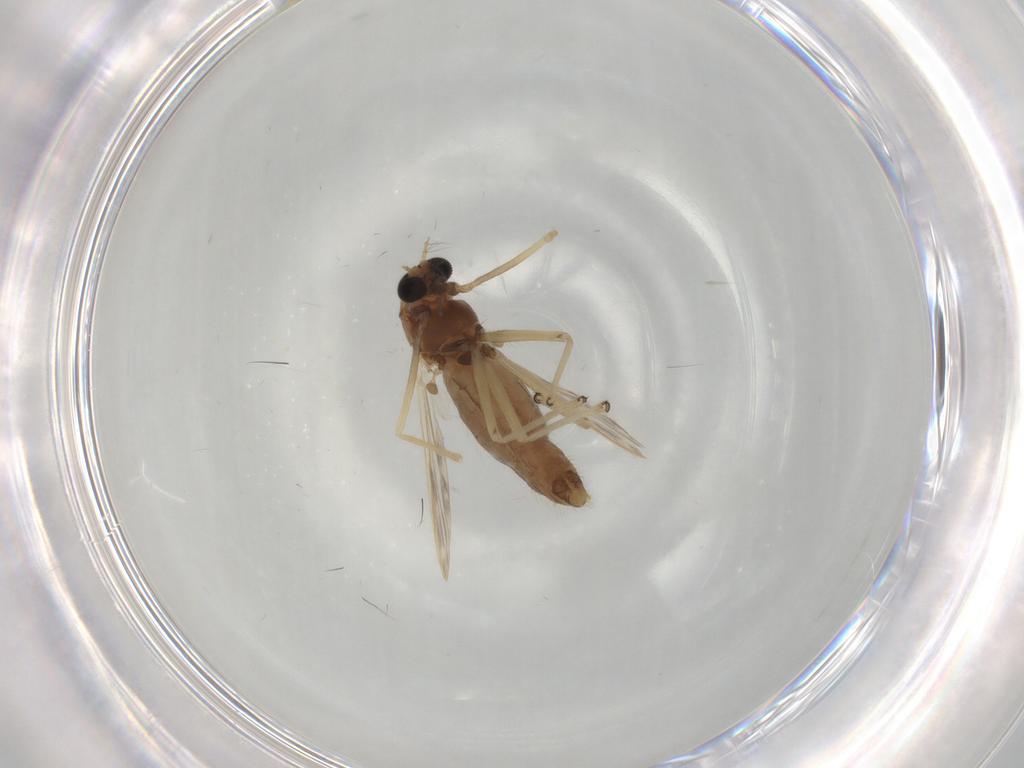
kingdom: Animalia
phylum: Arthropoda
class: Insecta
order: Diptera
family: Chironomidae
